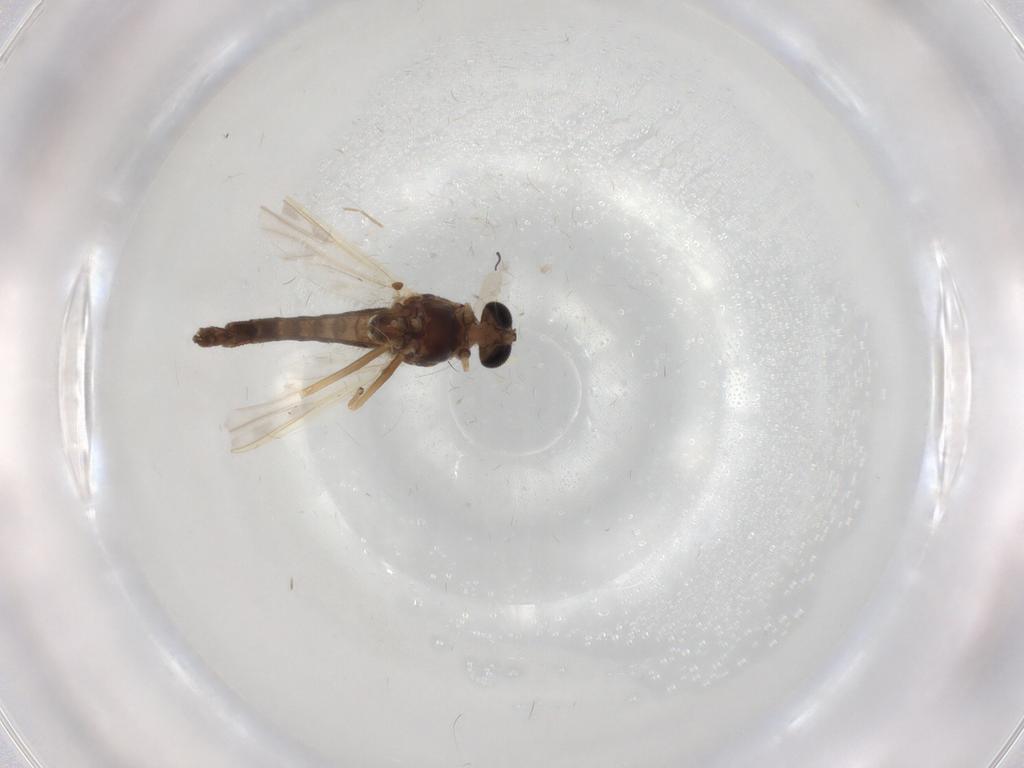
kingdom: Animalia
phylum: Arthropoda
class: Insecta
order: Diptera
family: Chironomidae
